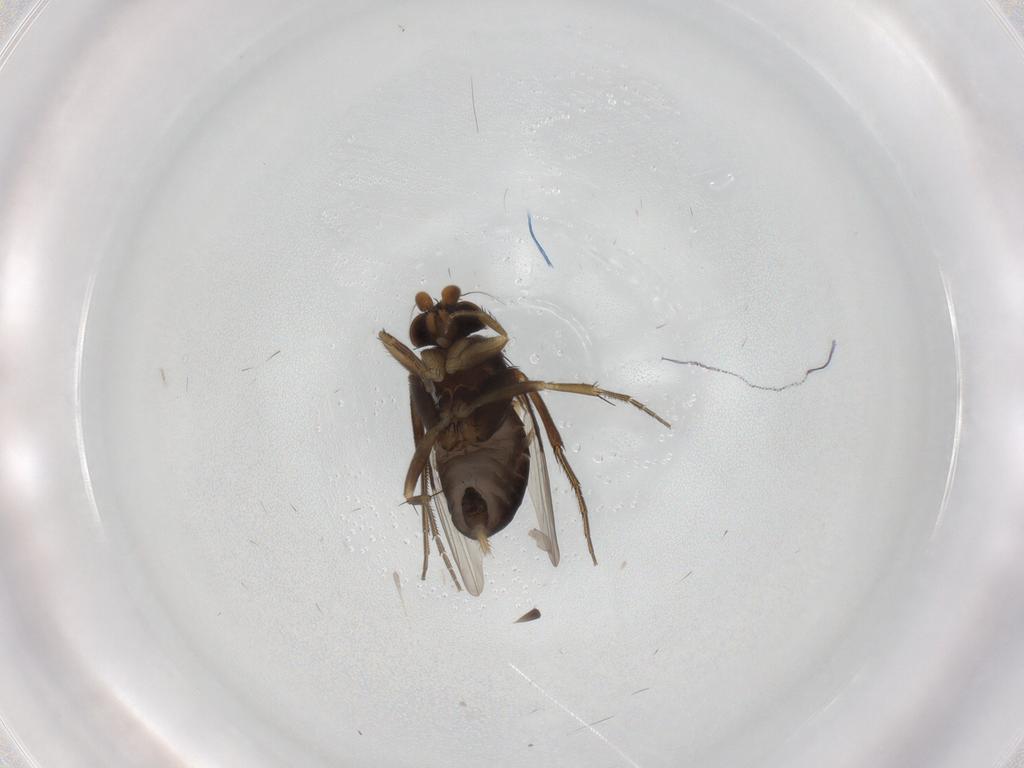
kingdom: Animalia
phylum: Arthropoda
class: Insecta
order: Diptera
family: Phoridae
